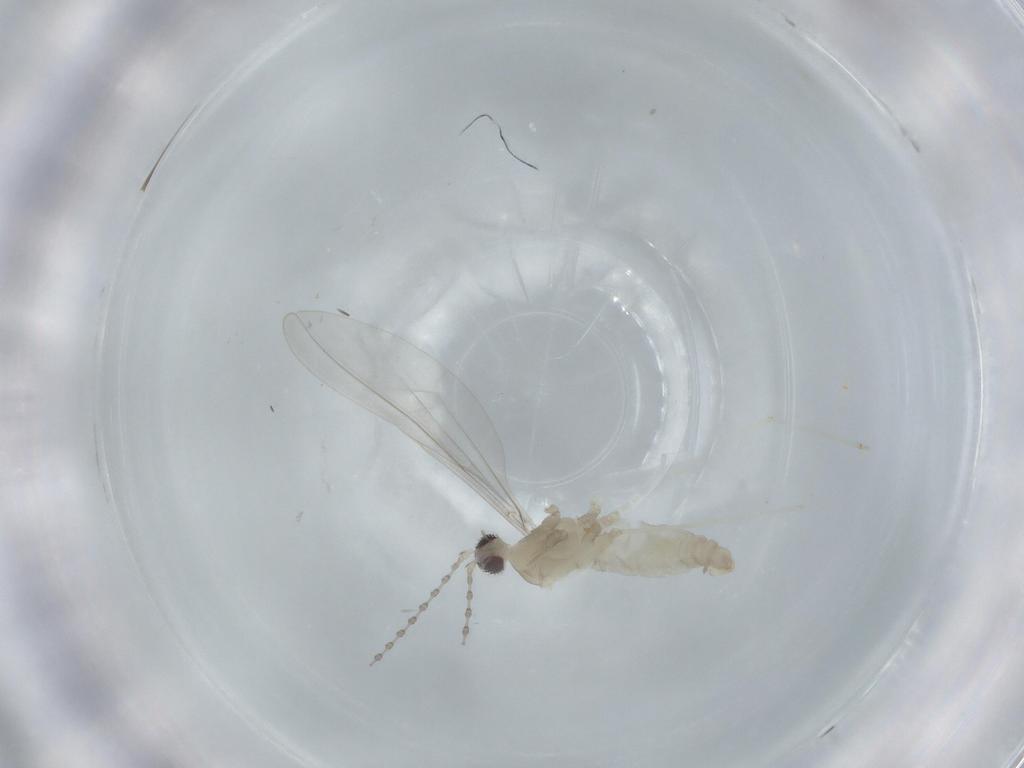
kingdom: Animalia
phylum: Arthropoda
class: Insecta
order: Diptera
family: Cecidomyiidae
